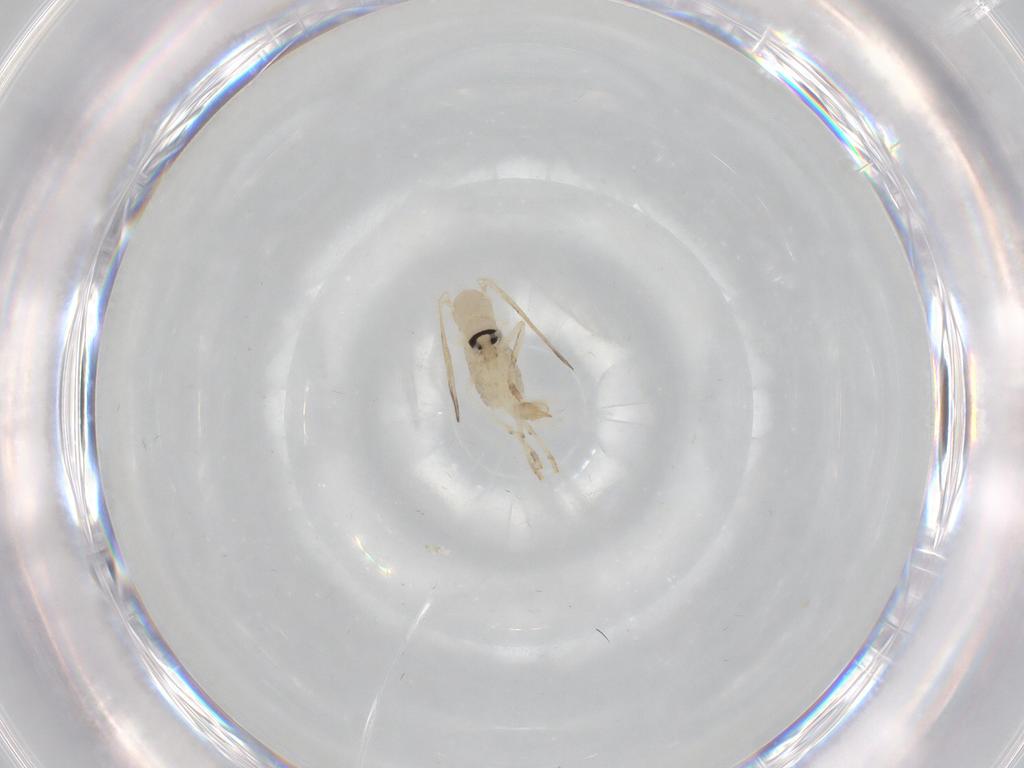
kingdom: Animalia
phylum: Arthropoda
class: Insecta
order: Diptera
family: Psychodidae
